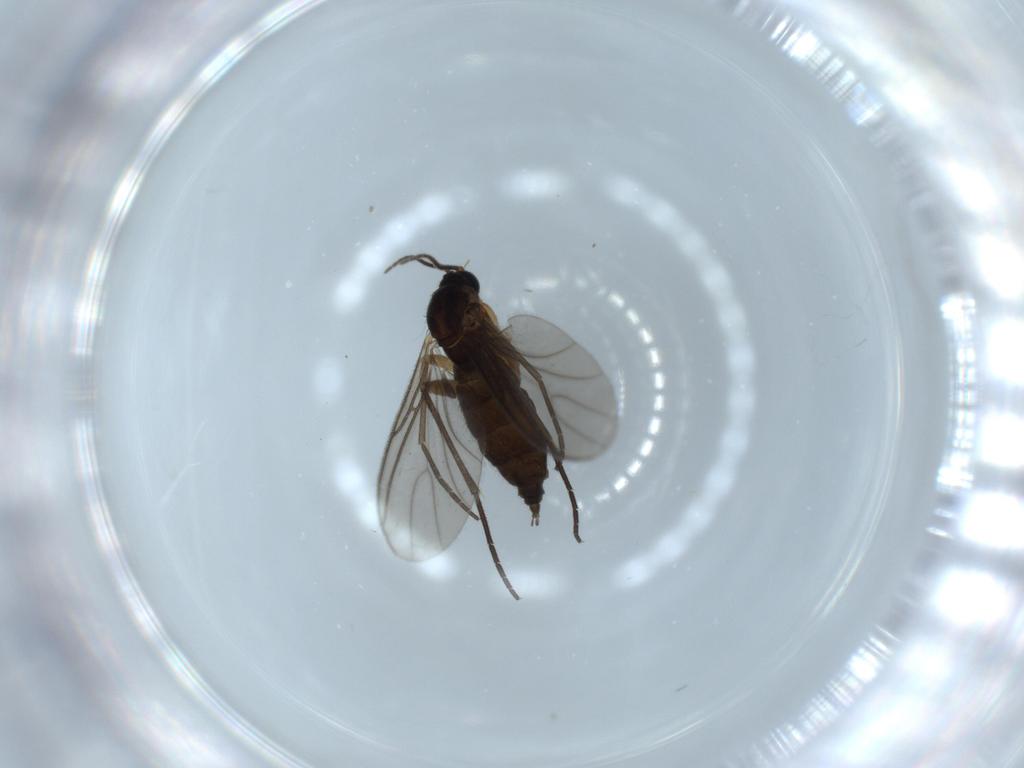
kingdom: Animalia
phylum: Arthropoda
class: Insecta
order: Diptera
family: Sciaridae
